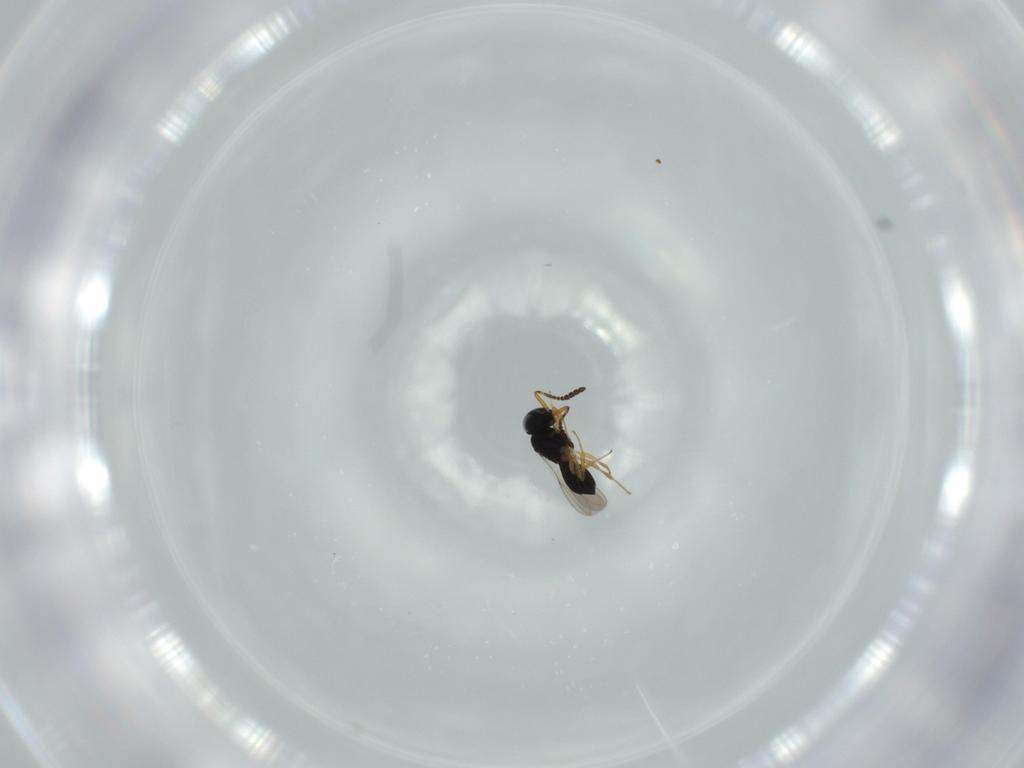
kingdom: Animalia
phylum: Arthropoda
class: Insecta
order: Hymenoptera
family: Scelionidae
